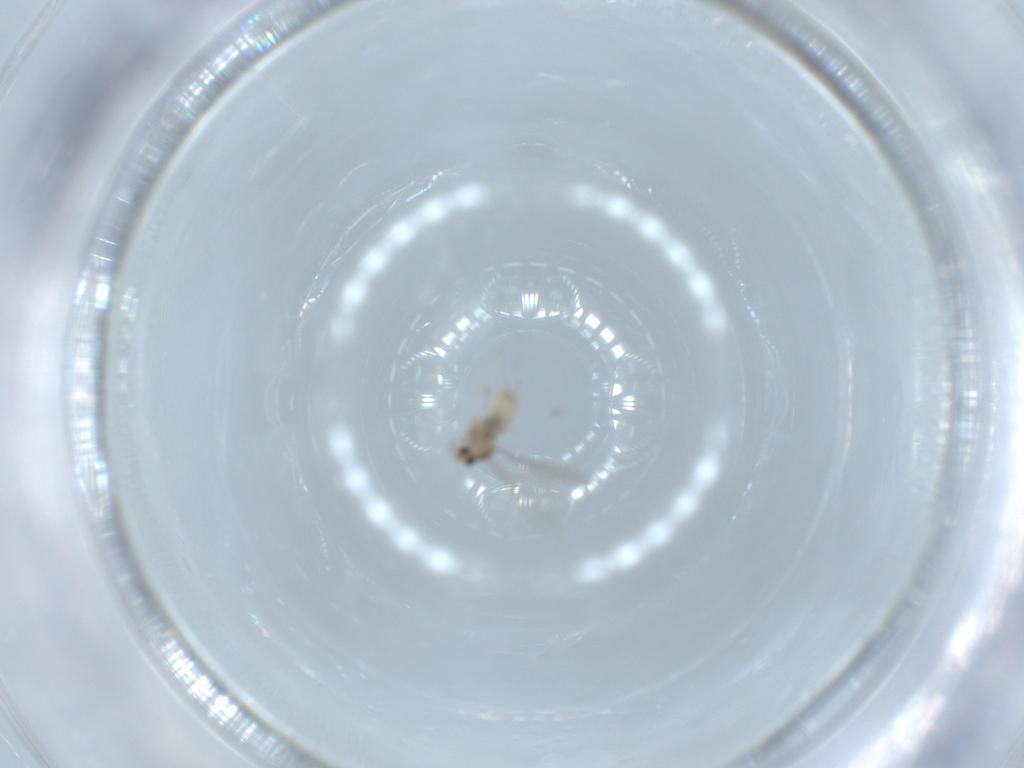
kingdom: Animalia
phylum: Arthropoda
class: Insecta
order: Diptera
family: Cecidomyiidae
